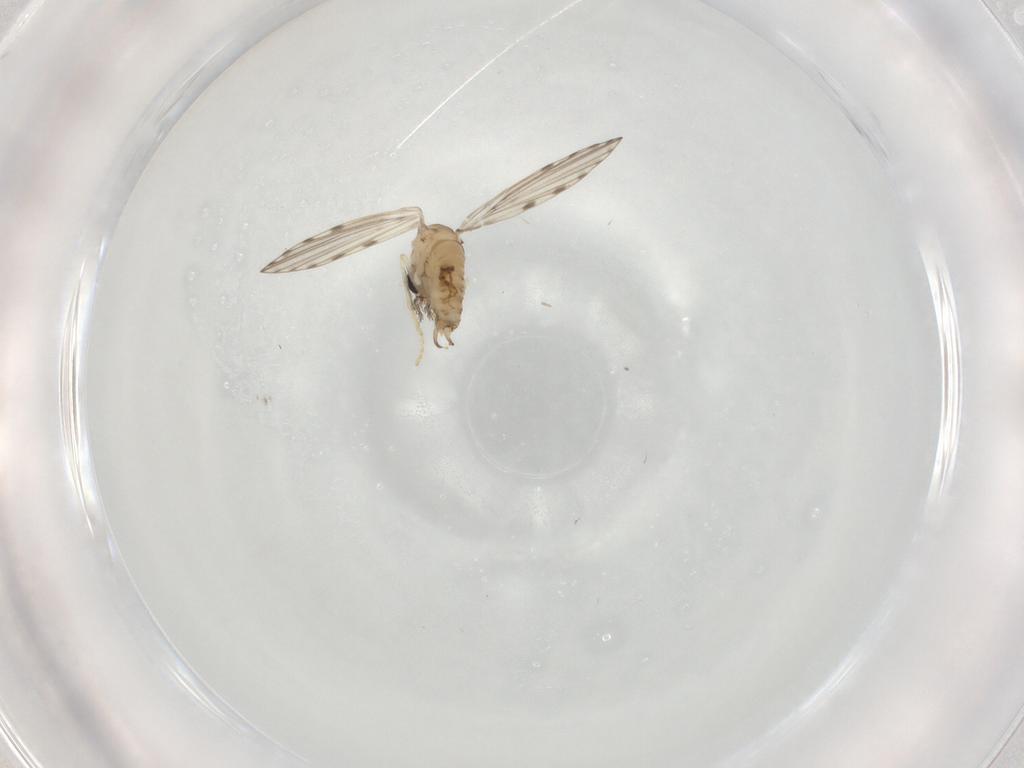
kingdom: Animalia
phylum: Arthropoda
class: Insecta
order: Diptera
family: Psychodidae
